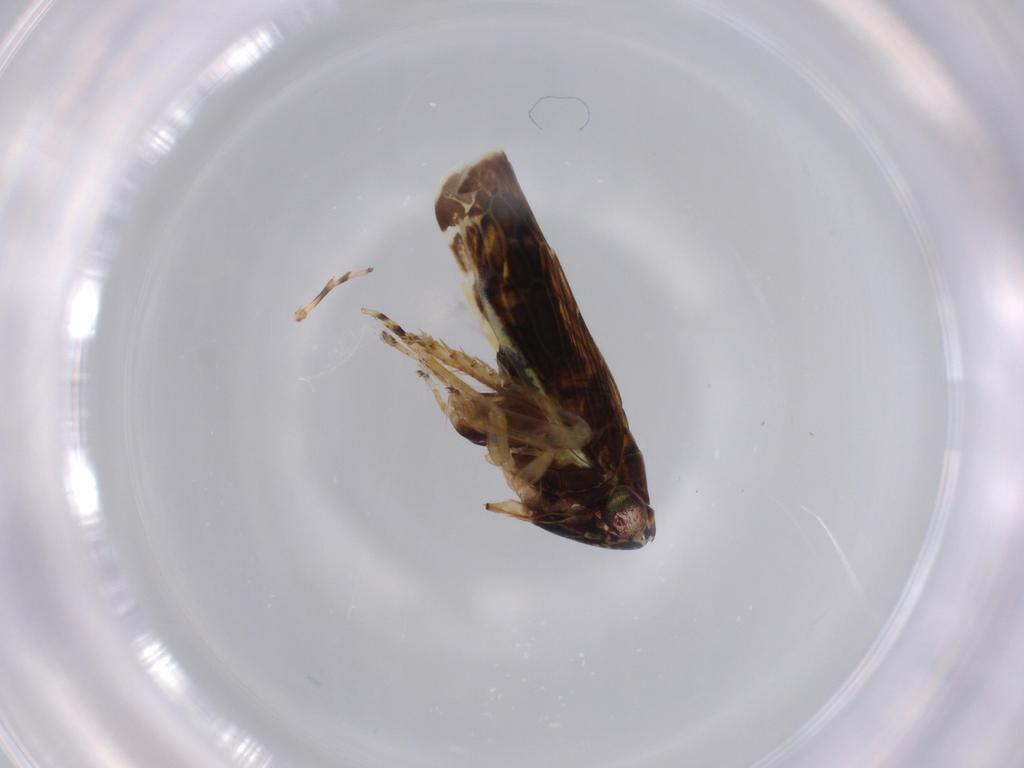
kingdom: Animalia
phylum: Arthropoda
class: Insecta
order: Hemiptera
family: Cicadellidae
